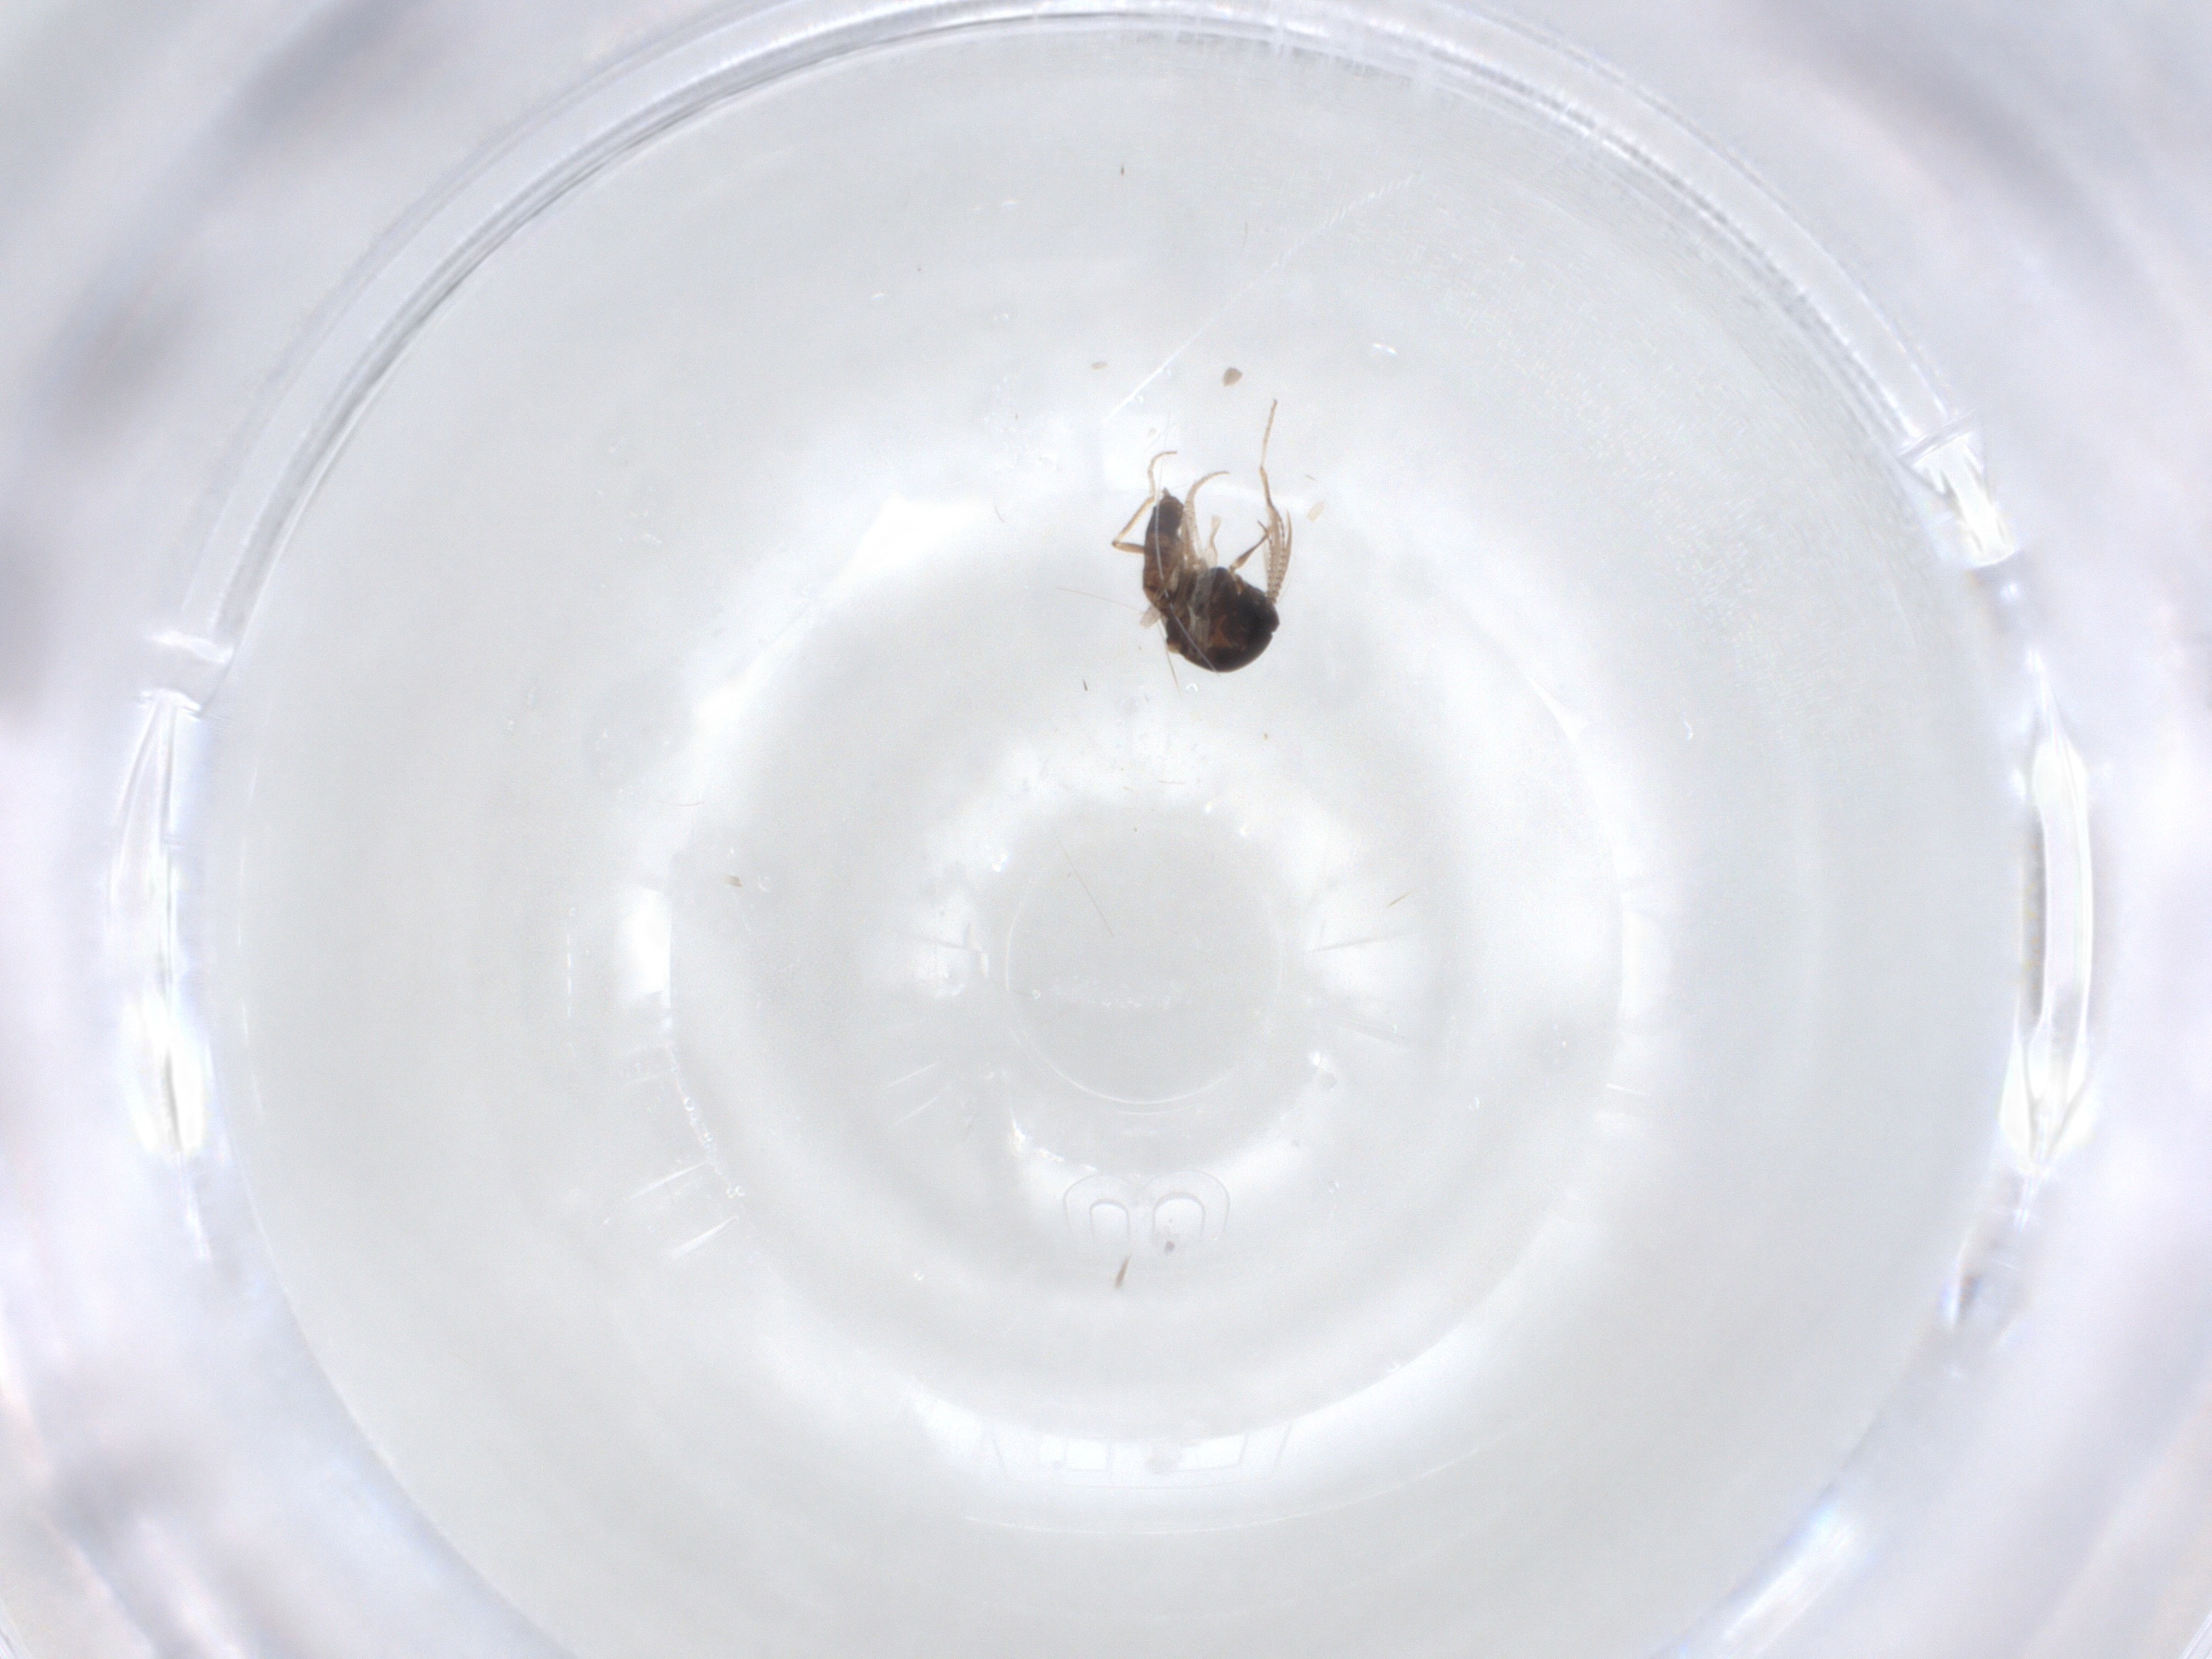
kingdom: Animalia
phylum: Arthropoda
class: Insecta
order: Diptera
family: Ceratopogonidae
